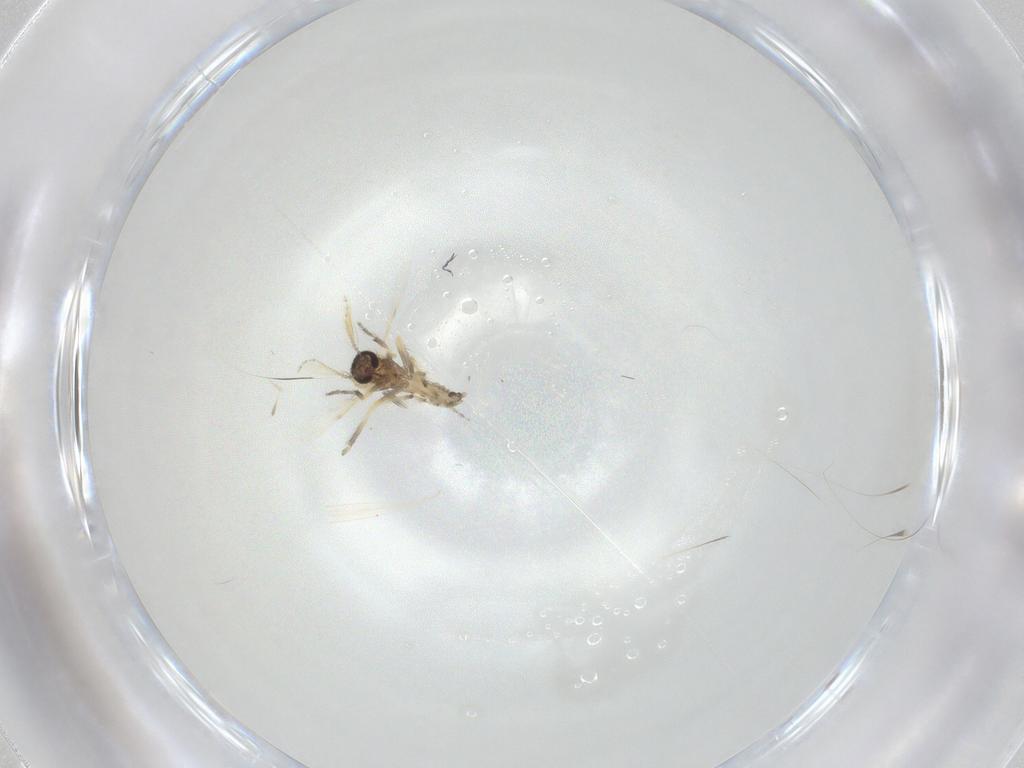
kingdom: Animalia
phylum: Arthropoda
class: Insecta
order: Diptera
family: Ceratopogonidae
